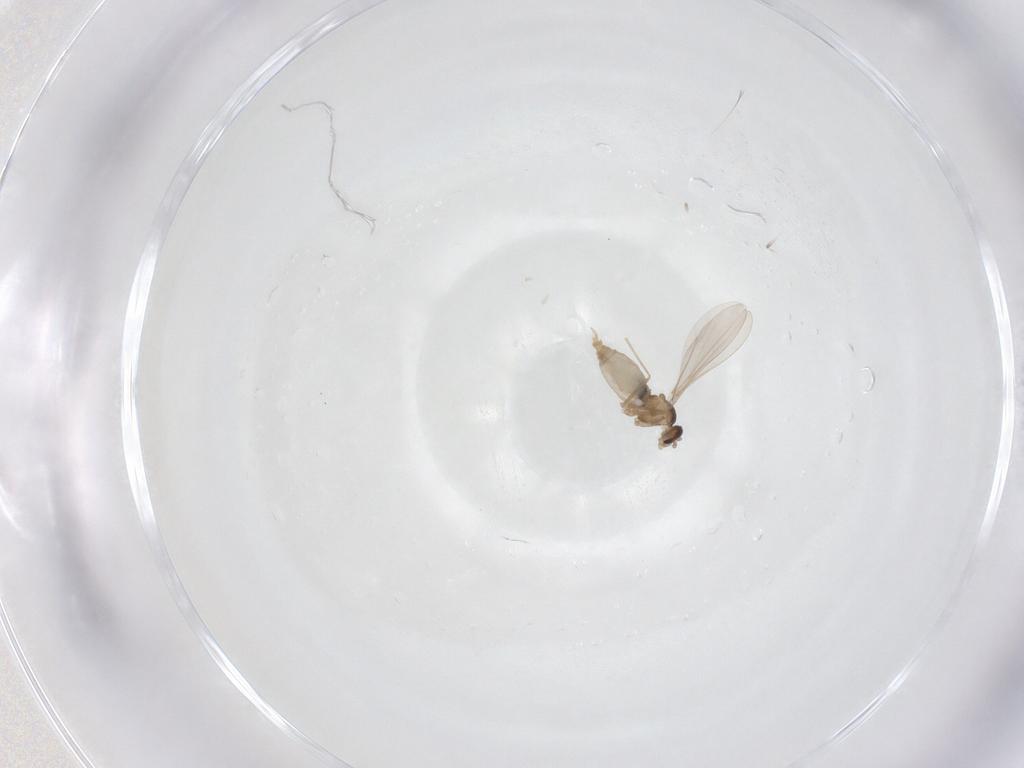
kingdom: Animalia
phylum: Arthropoda
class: Insecta
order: Diptera
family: Cecidomyiidae
